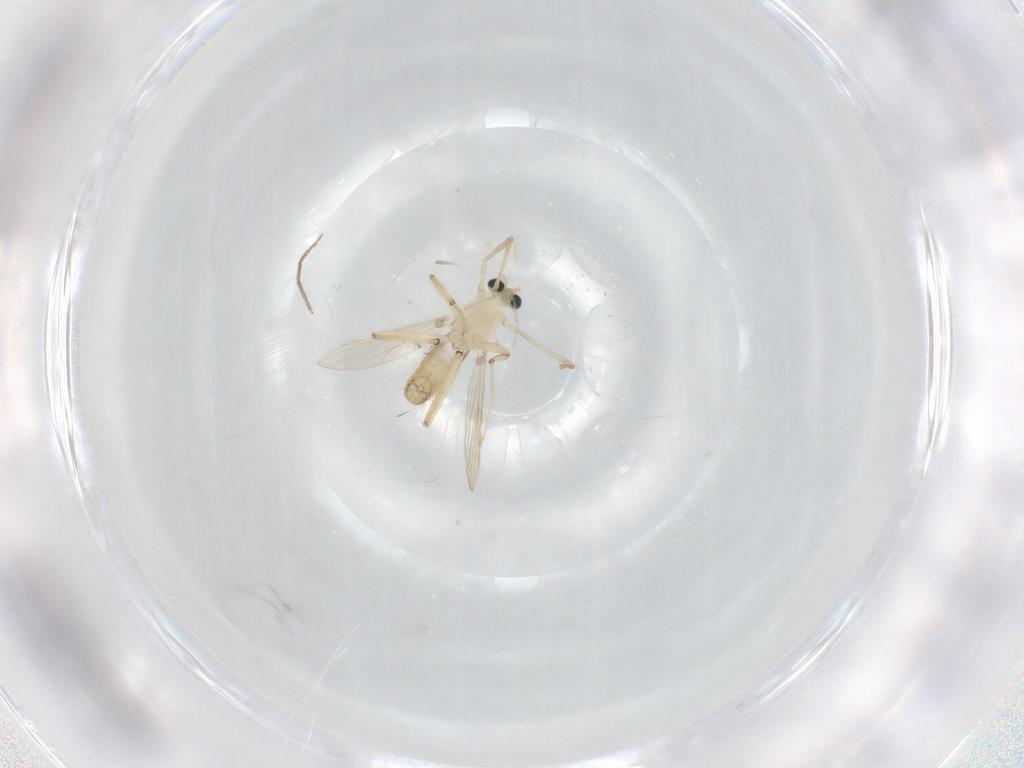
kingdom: Animalia
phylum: Arthropoda
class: Insecta
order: Diptera
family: Chironomidae
